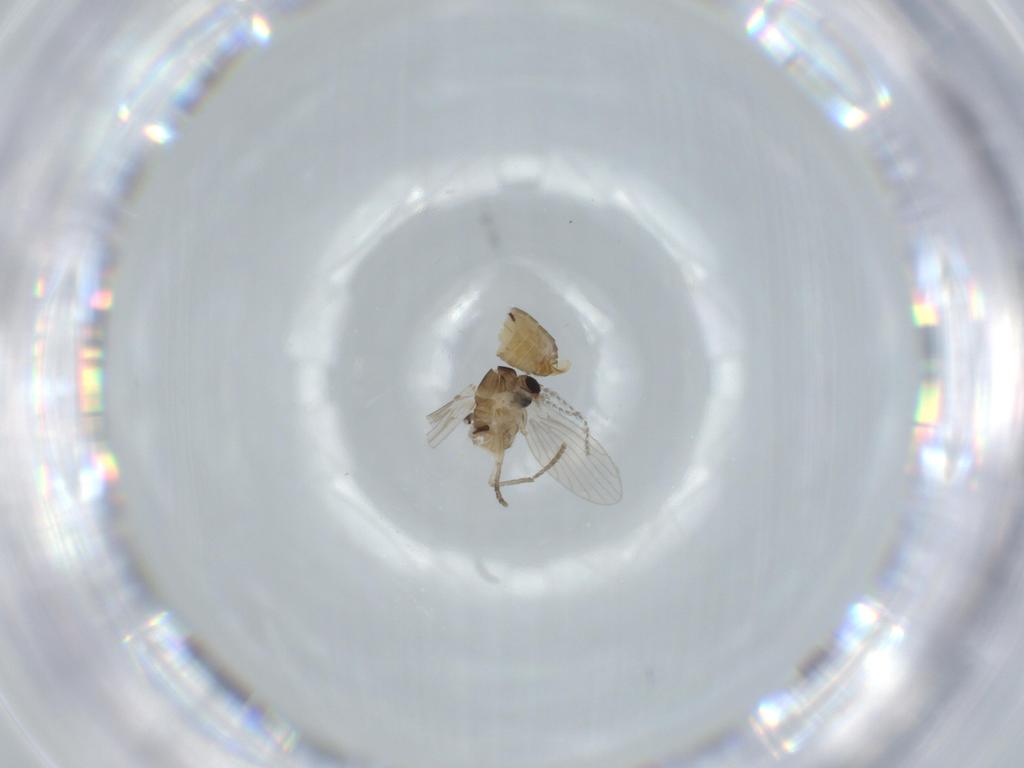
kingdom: Animalia
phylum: Arthropoda
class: Insecta
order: Diptera
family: Psychodidae
